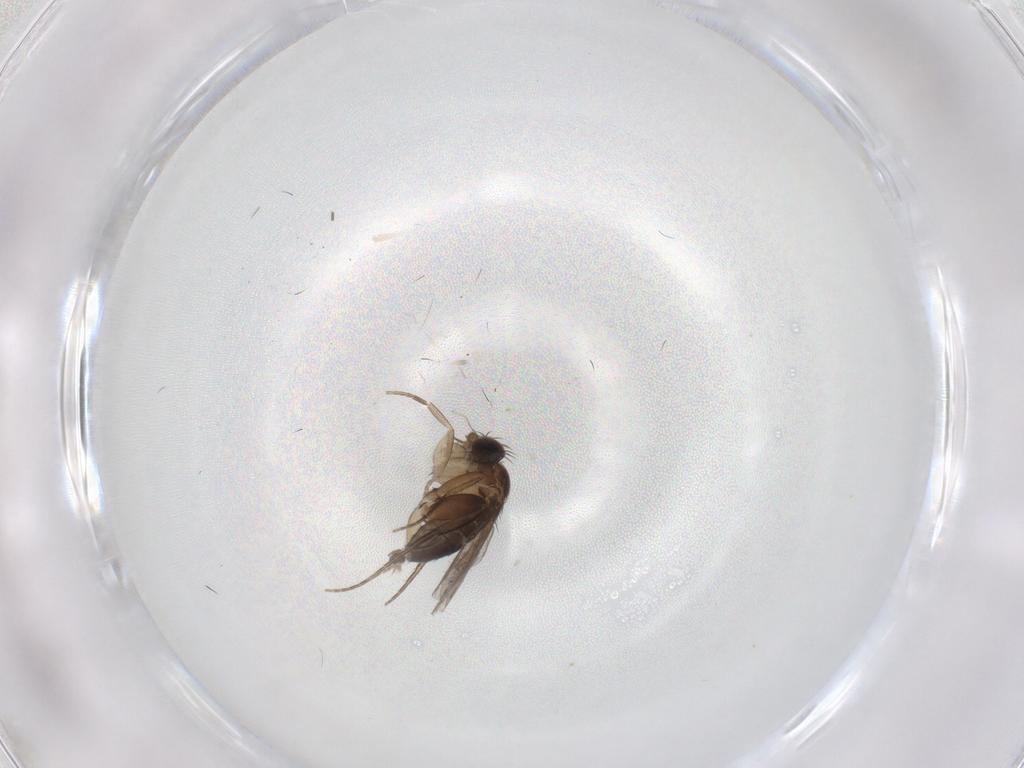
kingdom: Animalia
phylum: Arthropoda
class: Insecta
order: Diptera
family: Phoridae
